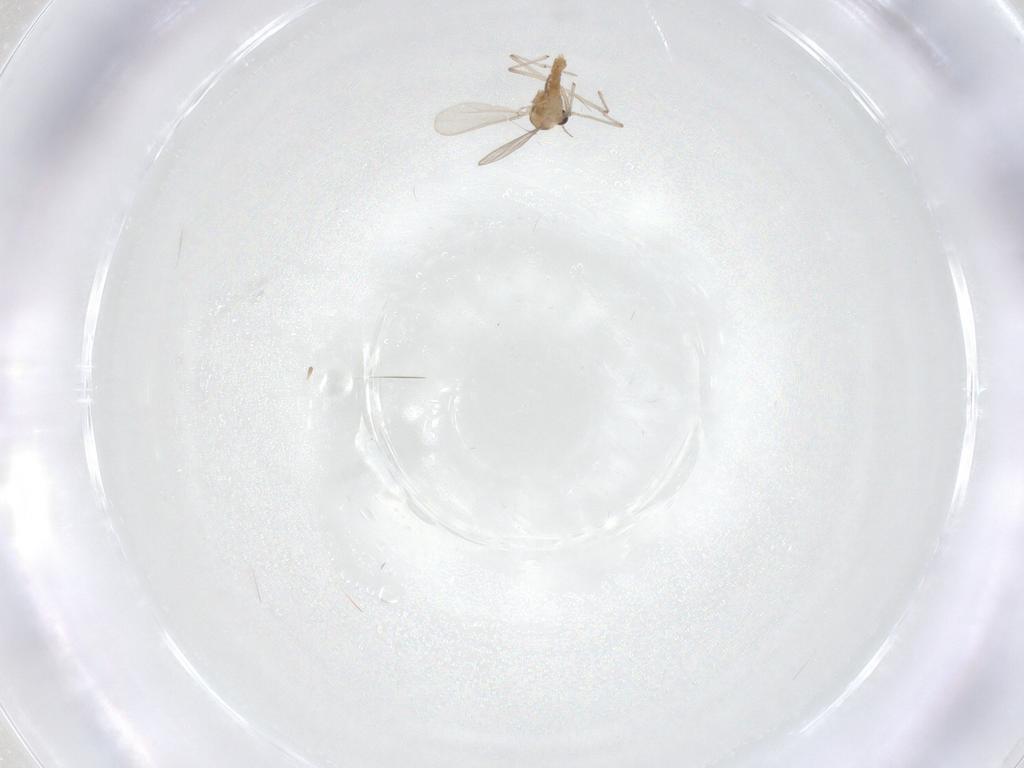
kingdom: Animalia
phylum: Arthropoda
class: Insecta
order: Diptera
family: Chironomidae
